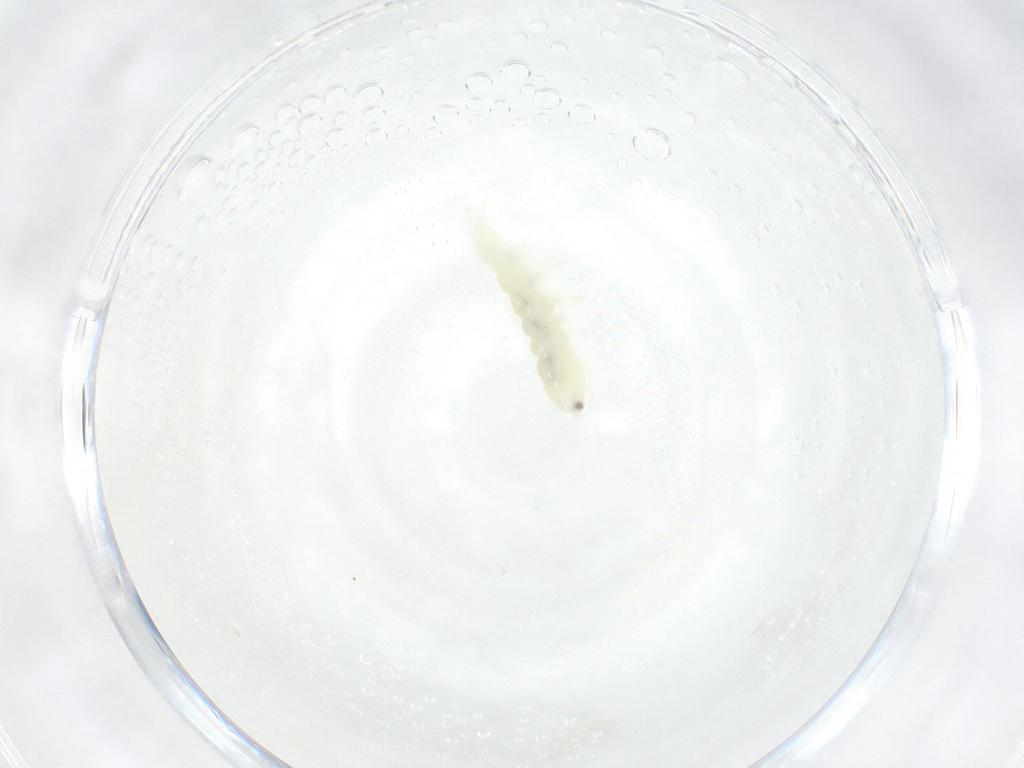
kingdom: Animalia
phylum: Arthropoda
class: Collembola
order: Poduromorpha
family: Onychiuridae
